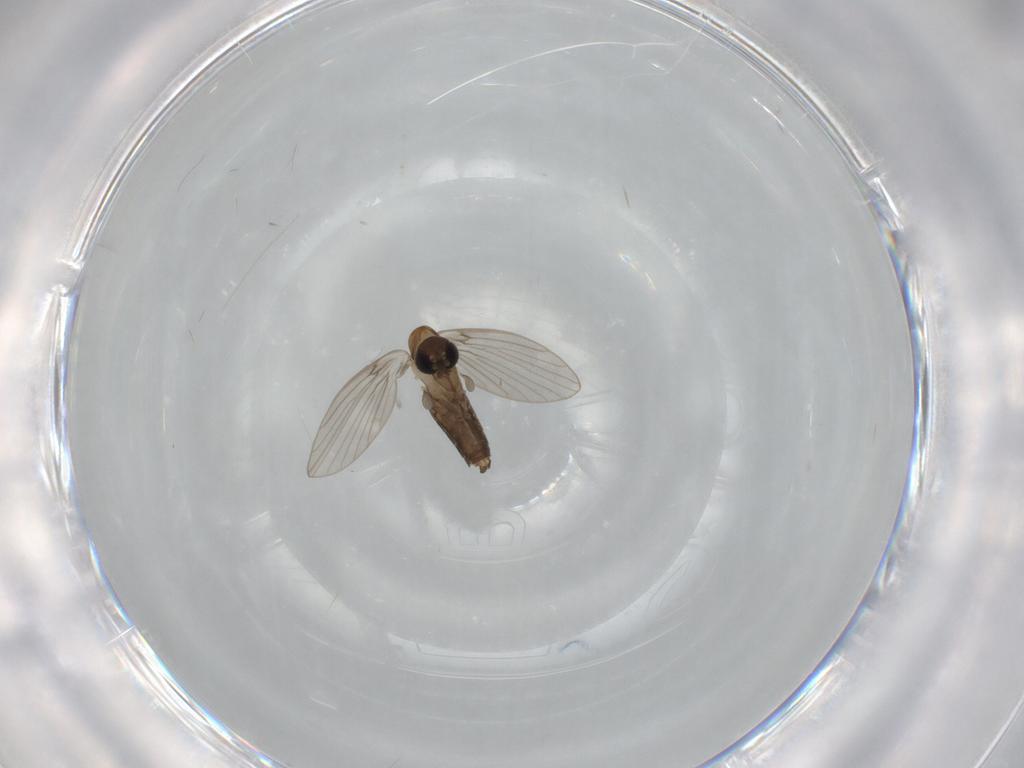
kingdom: Animalia
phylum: Arthropoda
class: Insecta
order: Diptera
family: Psychodidae
